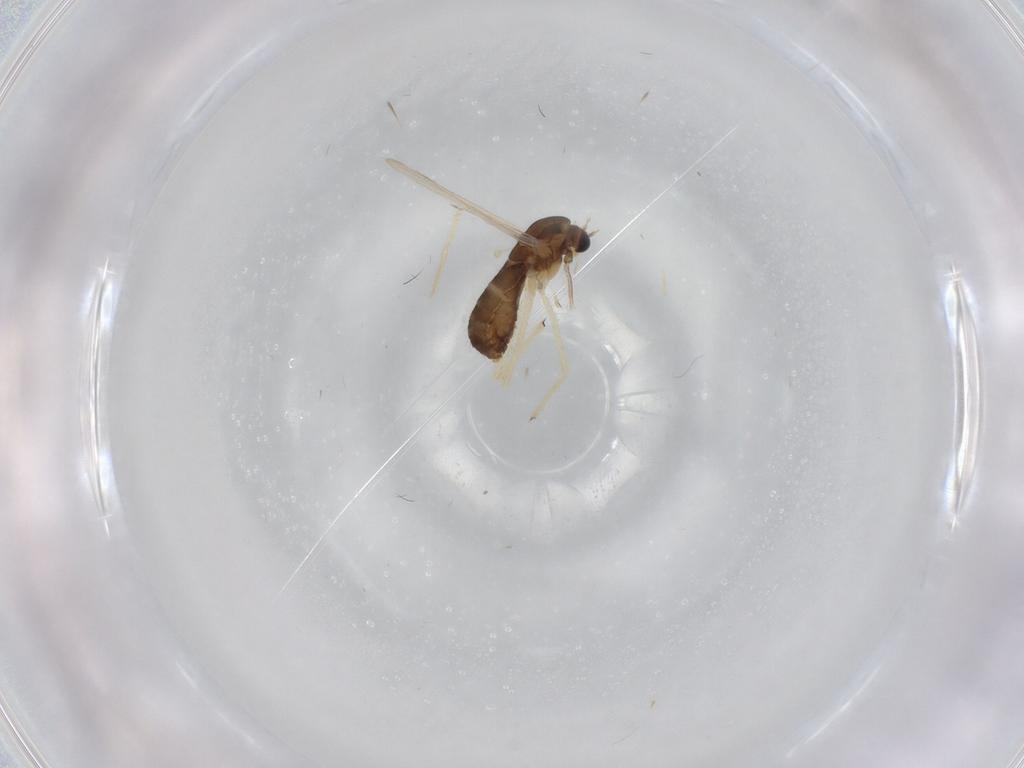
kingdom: Animalia
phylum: Arthropoda
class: Insecta
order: Diptera
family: Chironomidae
